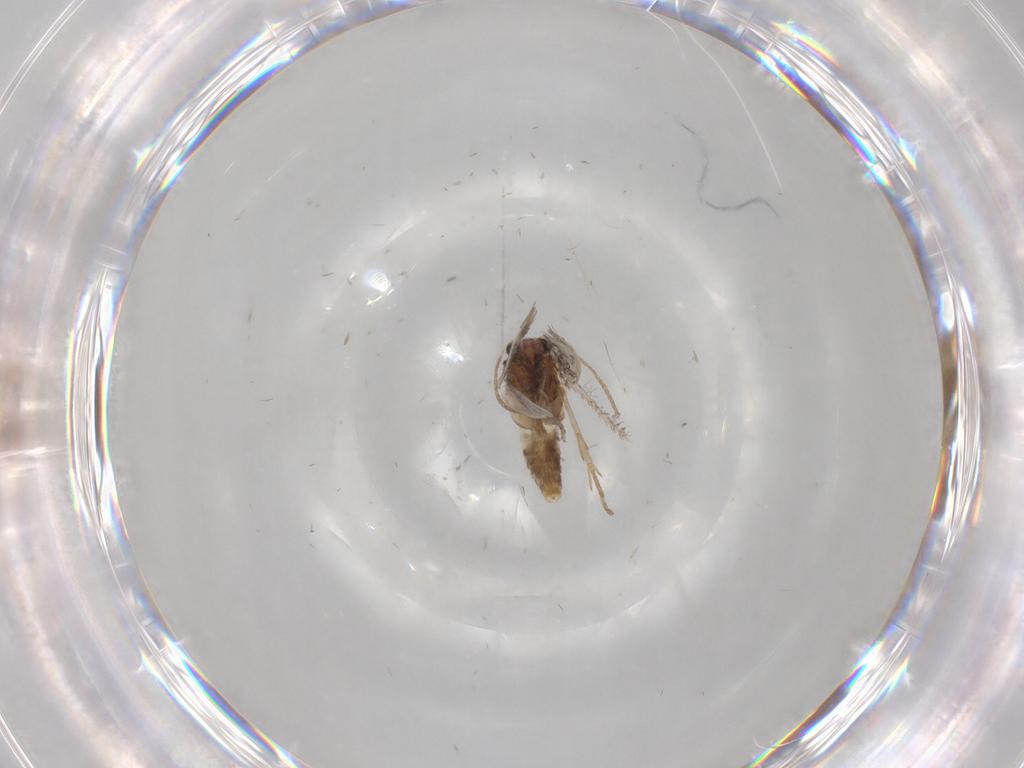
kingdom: Animalia
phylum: Arthropoda
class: Insecta
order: Lepidoptera
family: Nepticulidae
